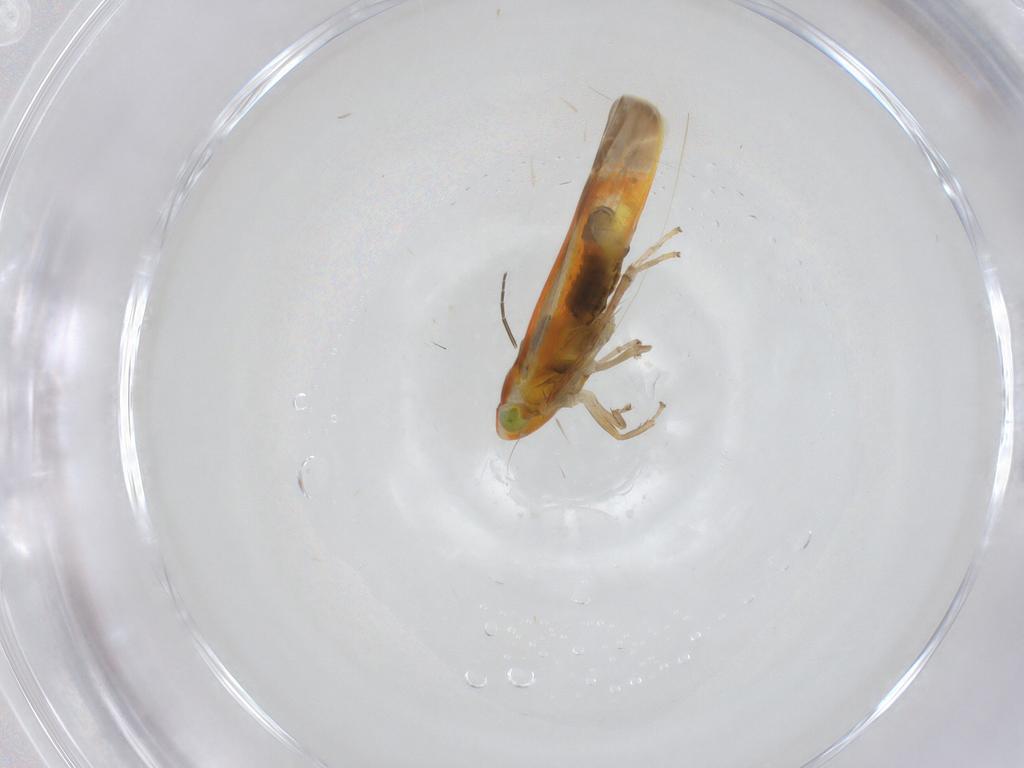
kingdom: Animalia
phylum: Arthropoda
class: Insecta
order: Hemiptera
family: Cicadellidae
